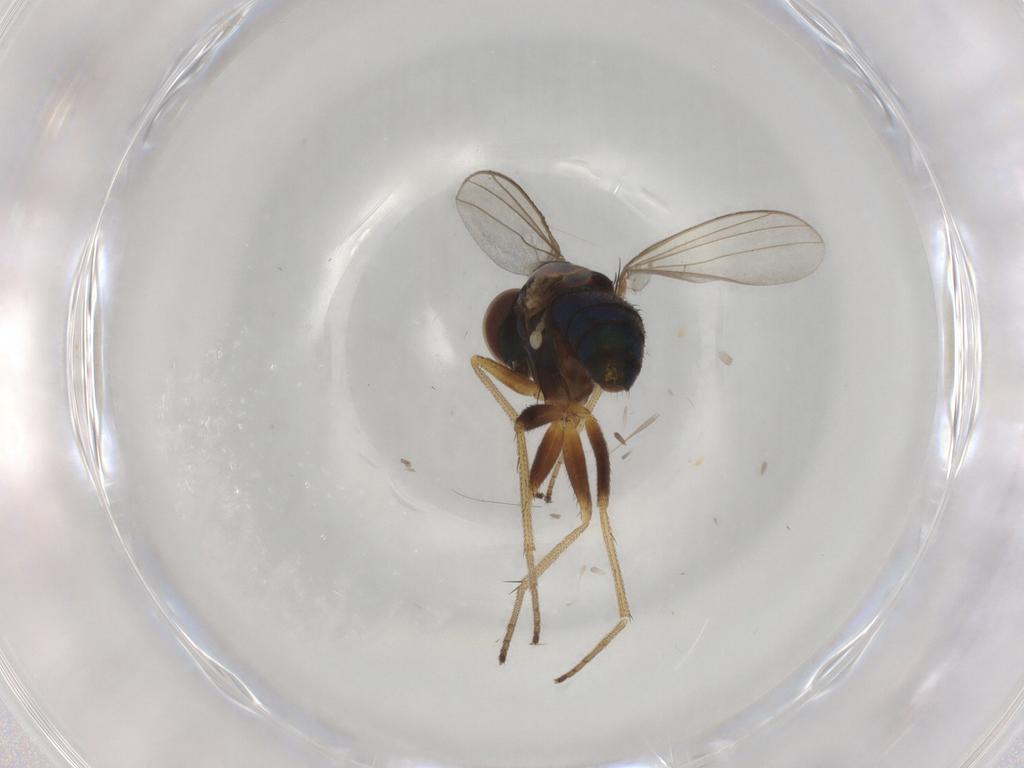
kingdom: Animalia
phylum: Arthropoda
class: Insecta
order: Diptera
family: Dolichopodidae
